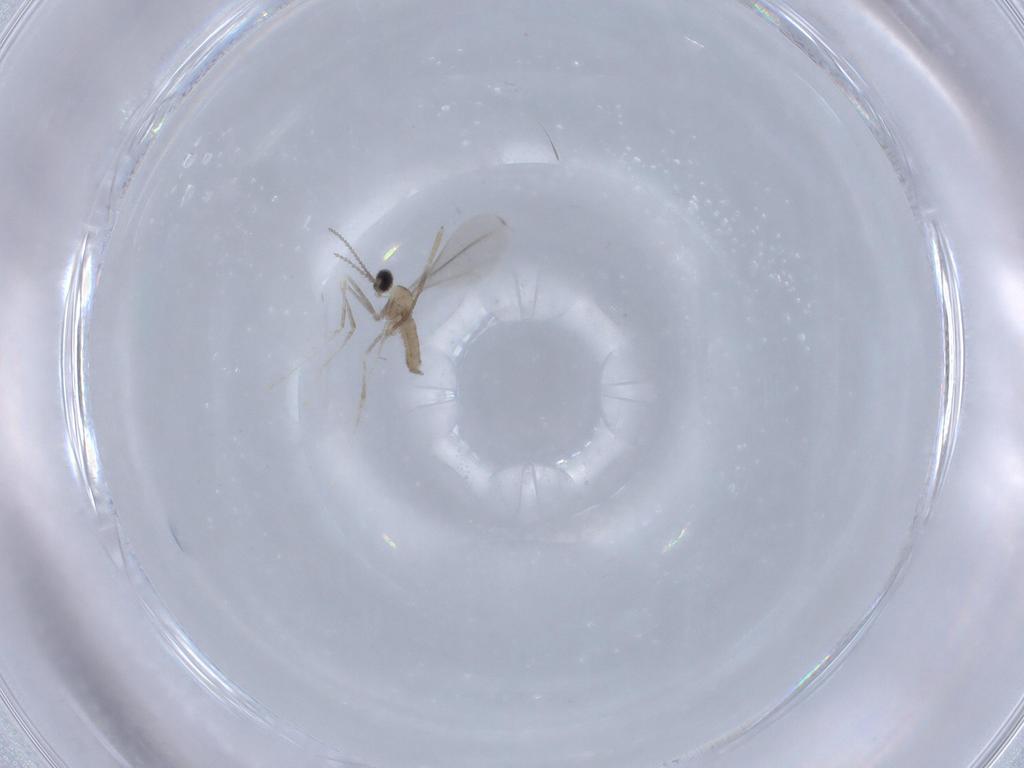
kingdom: Animalia
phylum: Arthropoda
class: Insecta
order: Diptera
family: Cecidomyiidae
